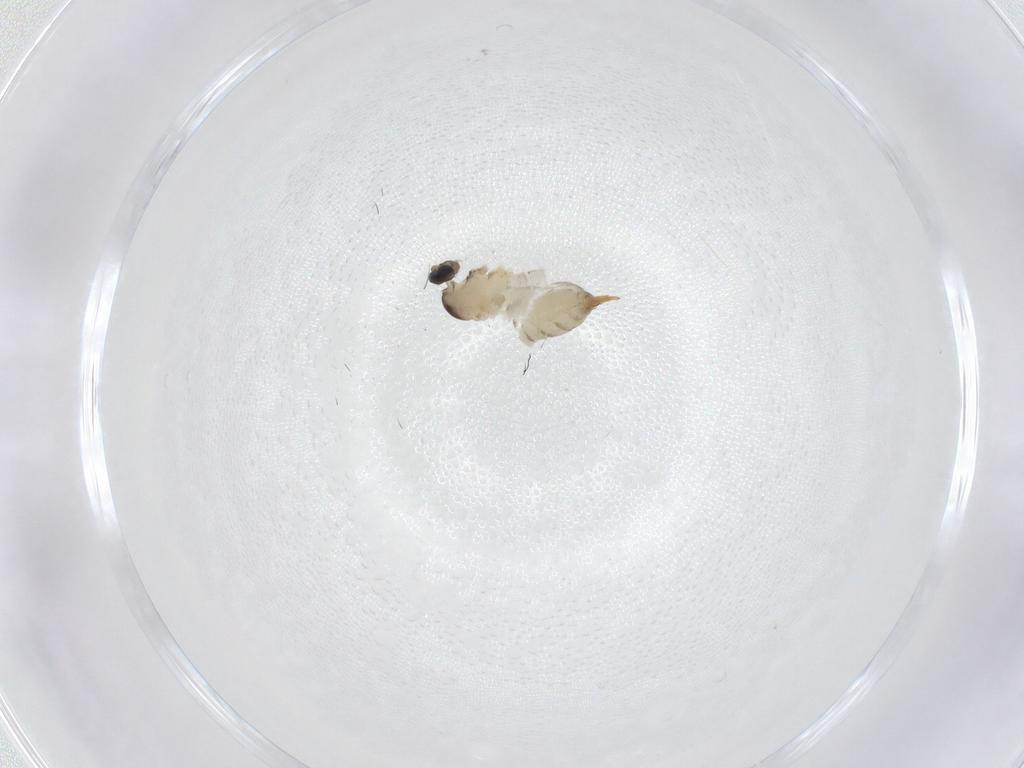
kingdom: Animalia
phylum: Arthropoda
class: Insecta
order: Diptera
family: Cecidomyiidae
